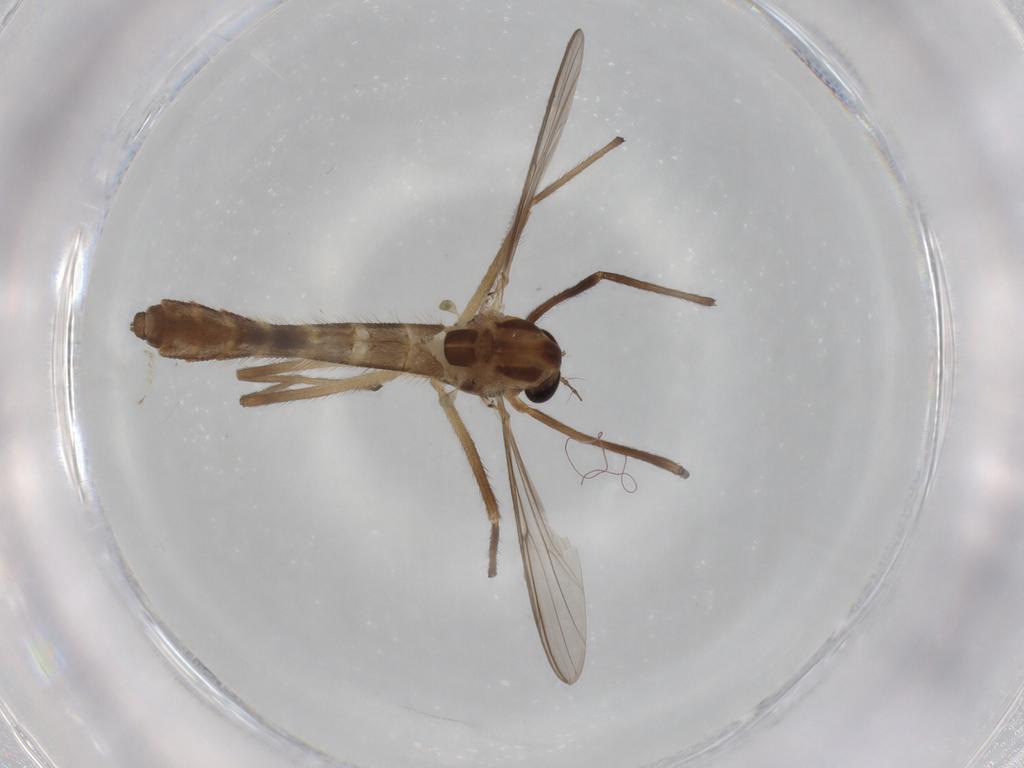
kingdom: Animalia
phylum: Arthropoda
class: Insecta
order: Diptera
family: Limoniidae
